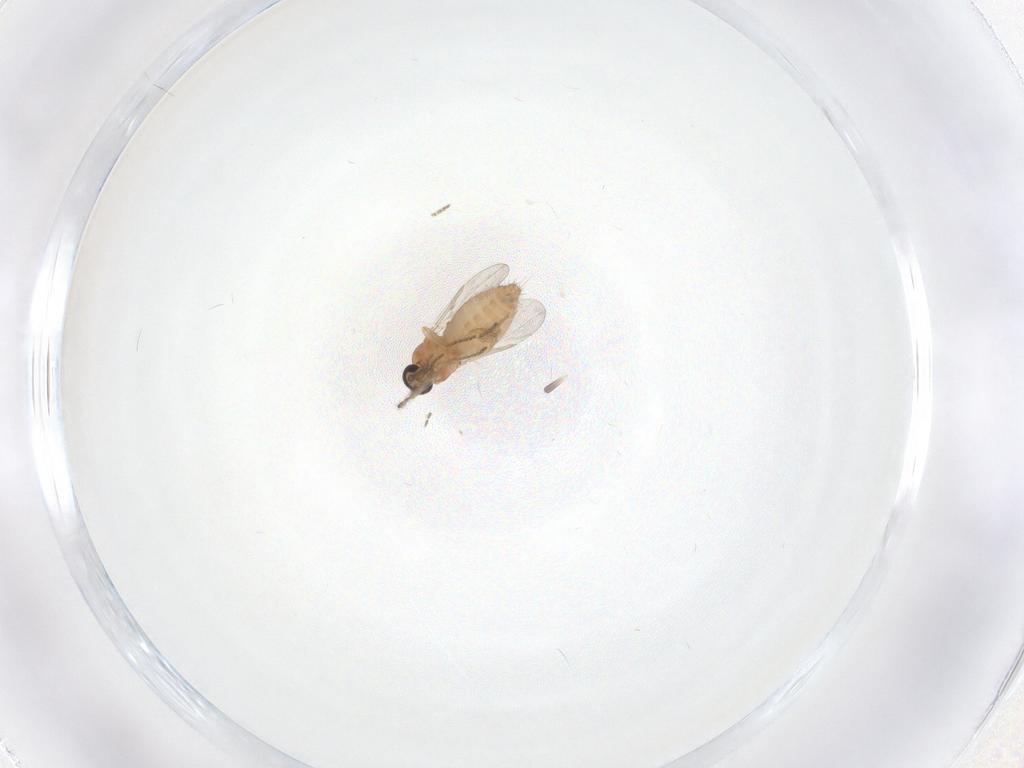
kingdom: Animalia
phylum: Arthropoda
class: Insecta
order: Diptera
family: Ceratopogonidae
